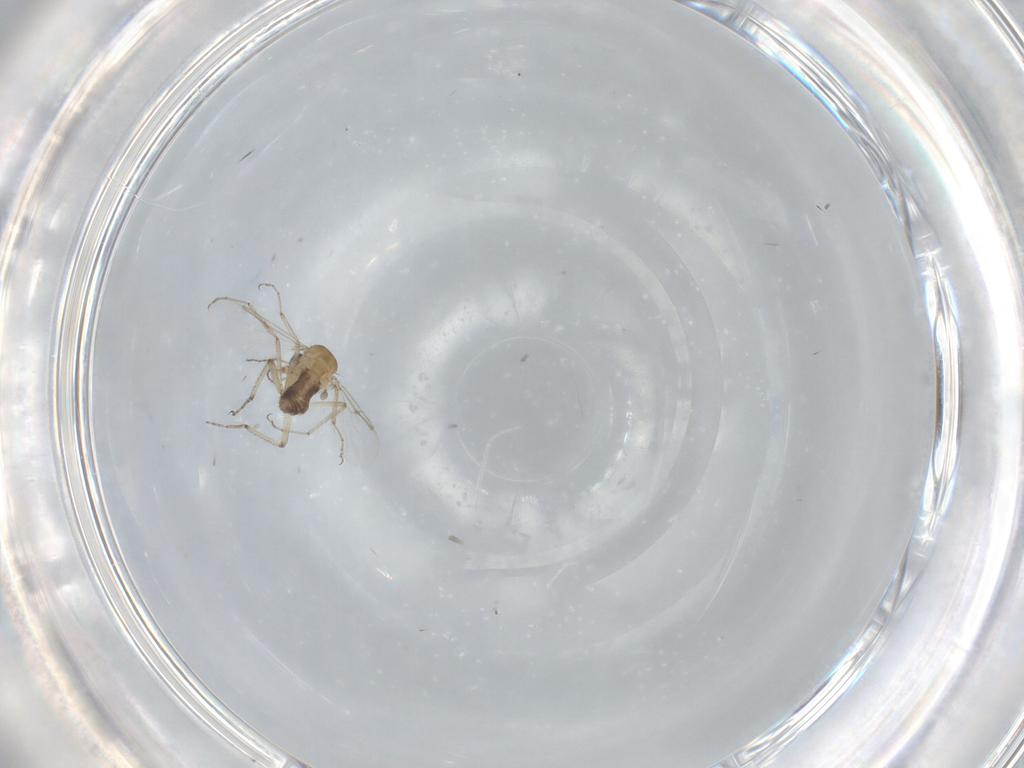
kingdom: Animalia
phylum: Arthropoda
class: Insecta
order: Diptera
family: Ceratopogonidae
